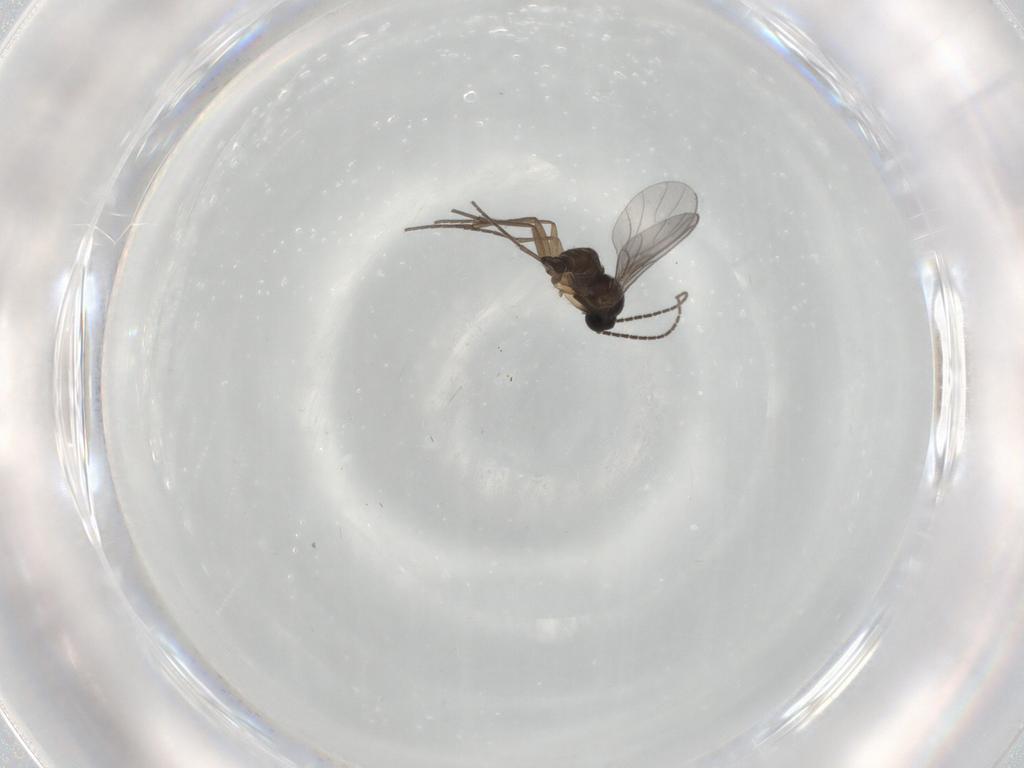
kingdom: Animalia
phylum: Arthropoda
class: Insecta
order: Diptera
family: Sciaridae
